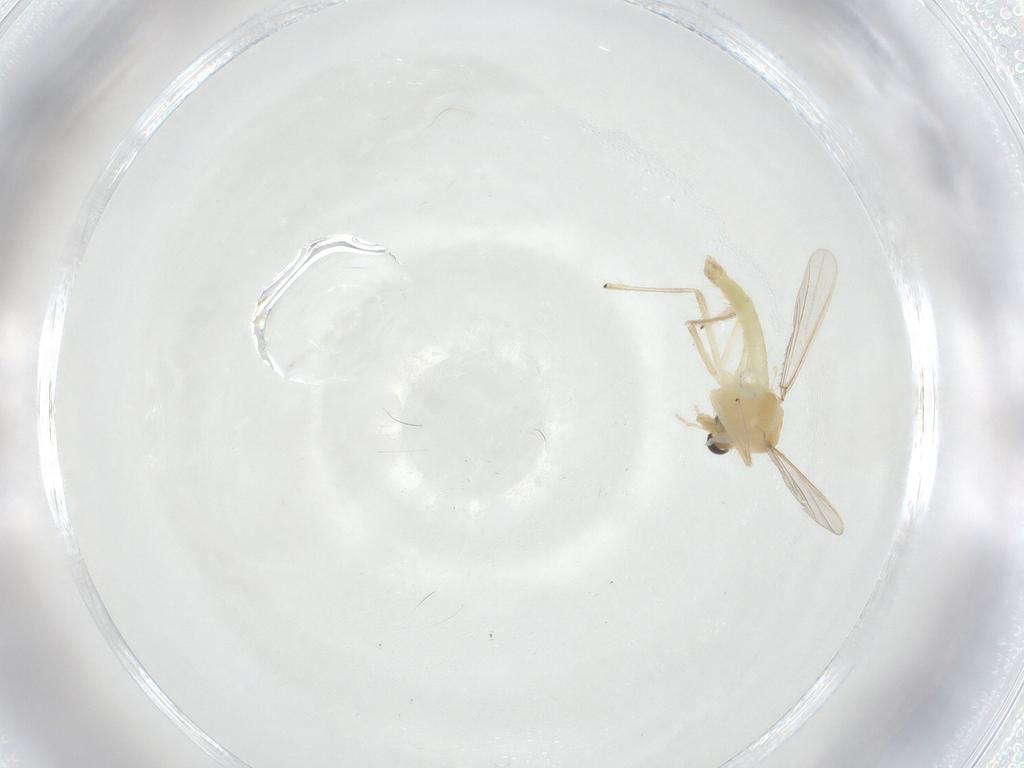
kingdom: Animalia
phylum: Arthropoda
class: Insecta
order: Diptera
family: Chironomidae
